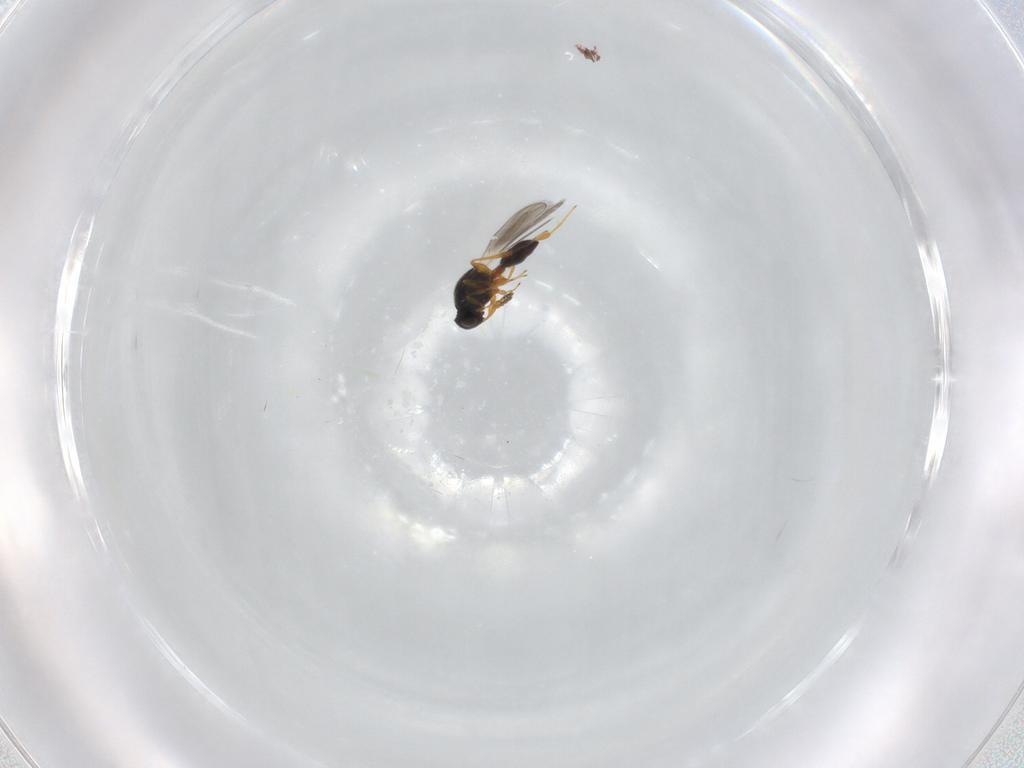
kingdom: Animalia
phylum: Arthropoda
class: Insecta
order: Hymenoptera
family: Platygastridae
